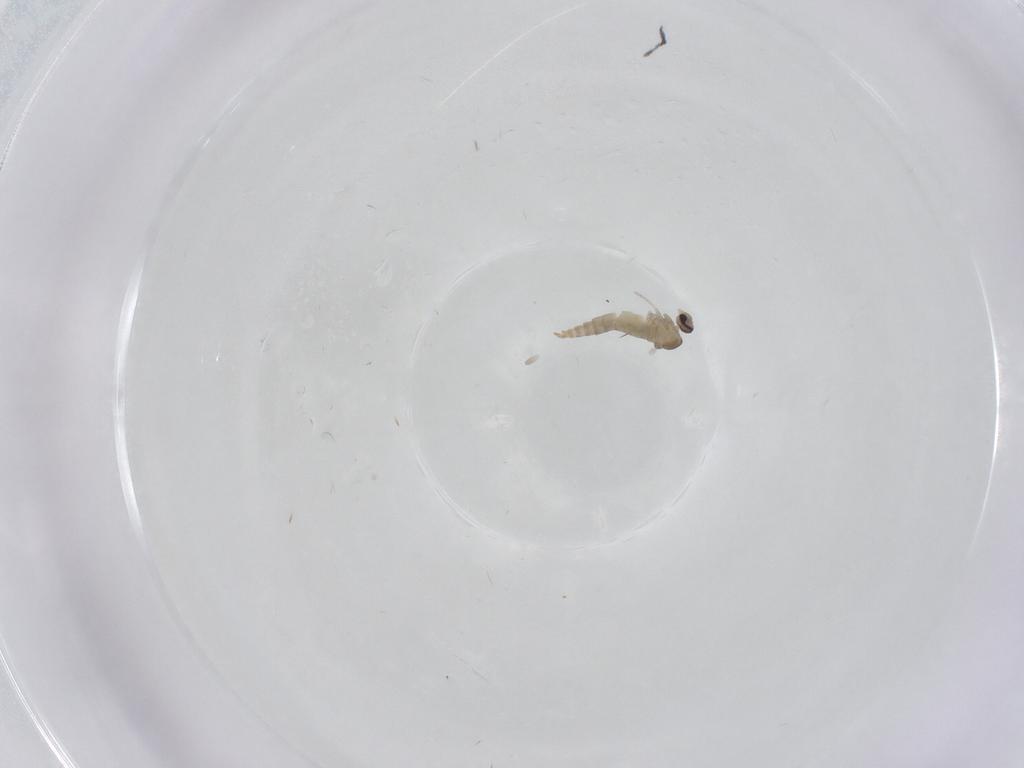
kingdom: Animalia
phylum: Arthropoda
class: Insecta
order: Diptera
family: Cecidomyiidae
